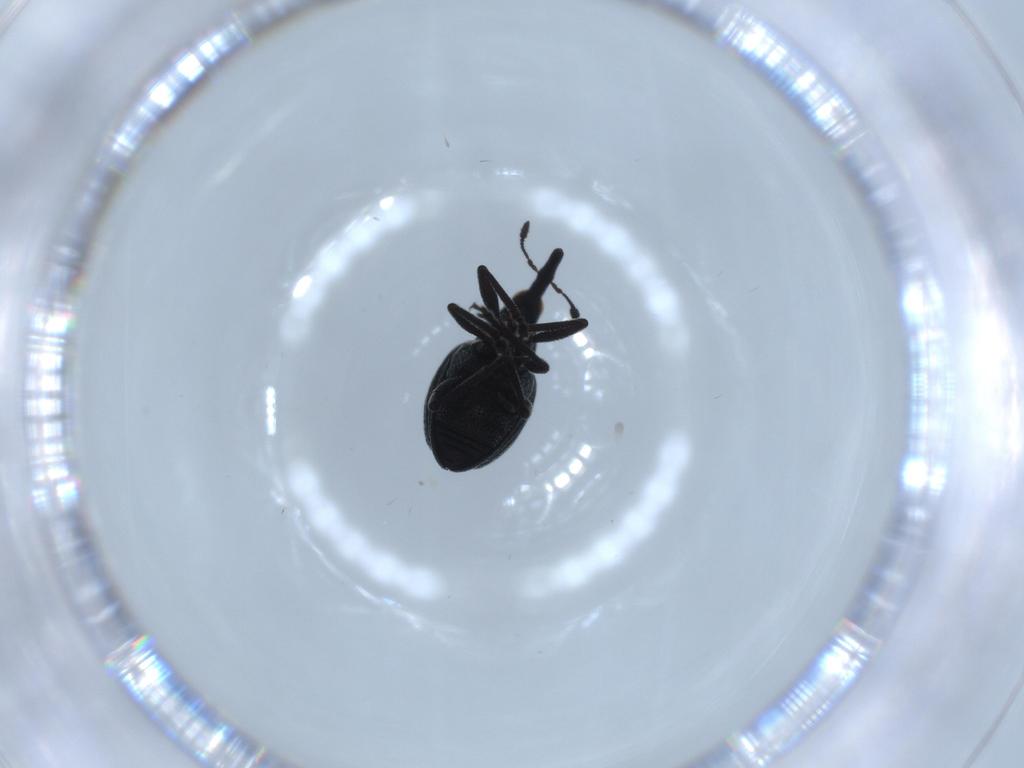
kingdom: Animalia
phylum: Arthropoda
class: Insecta
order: Coleoptera
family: Brentidae
